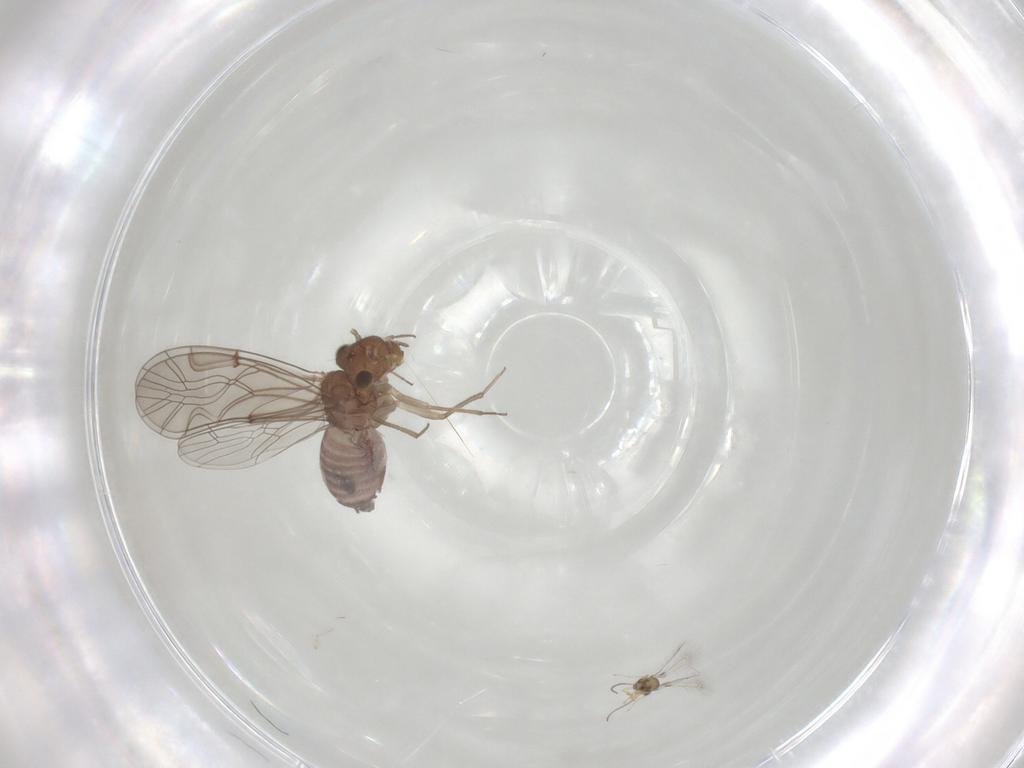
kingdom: Animalia
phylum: Arthropoda
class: Insecta
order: Psocodea
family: Lachesillidae
